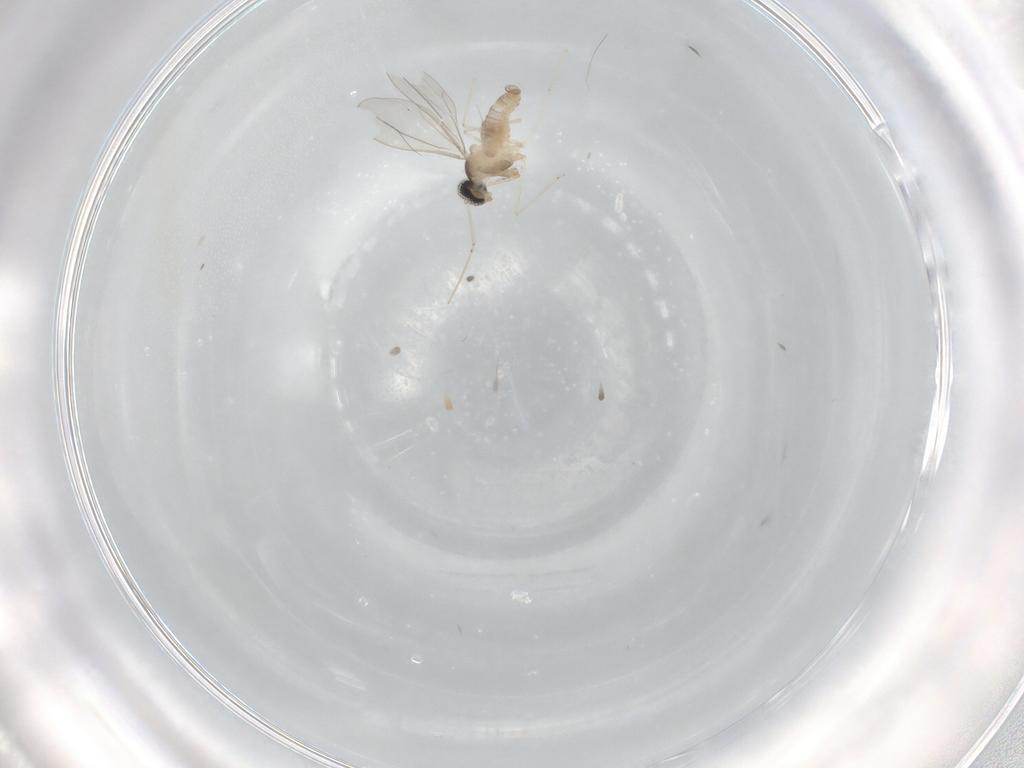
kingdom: Animalia
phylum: Arthropoda
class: Insecta
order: Diptera
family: Cecidomyiidae
